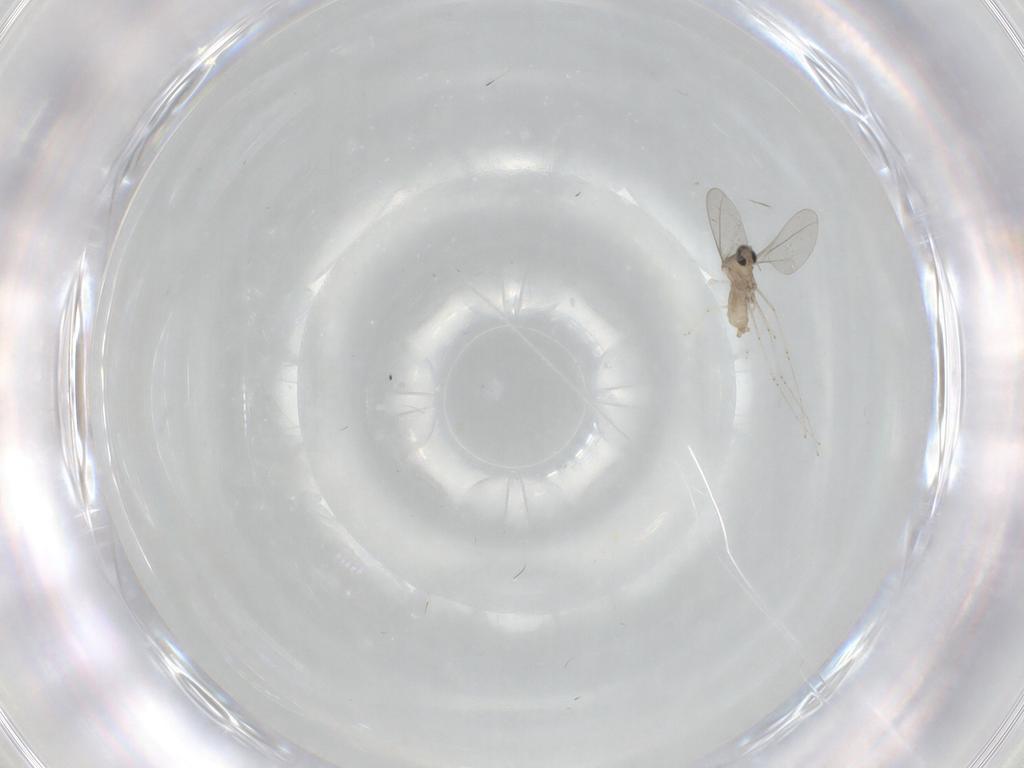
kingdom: Animalia
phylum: Arthropoda
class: Insecta
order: Diptera
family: Cecidomyiidae
